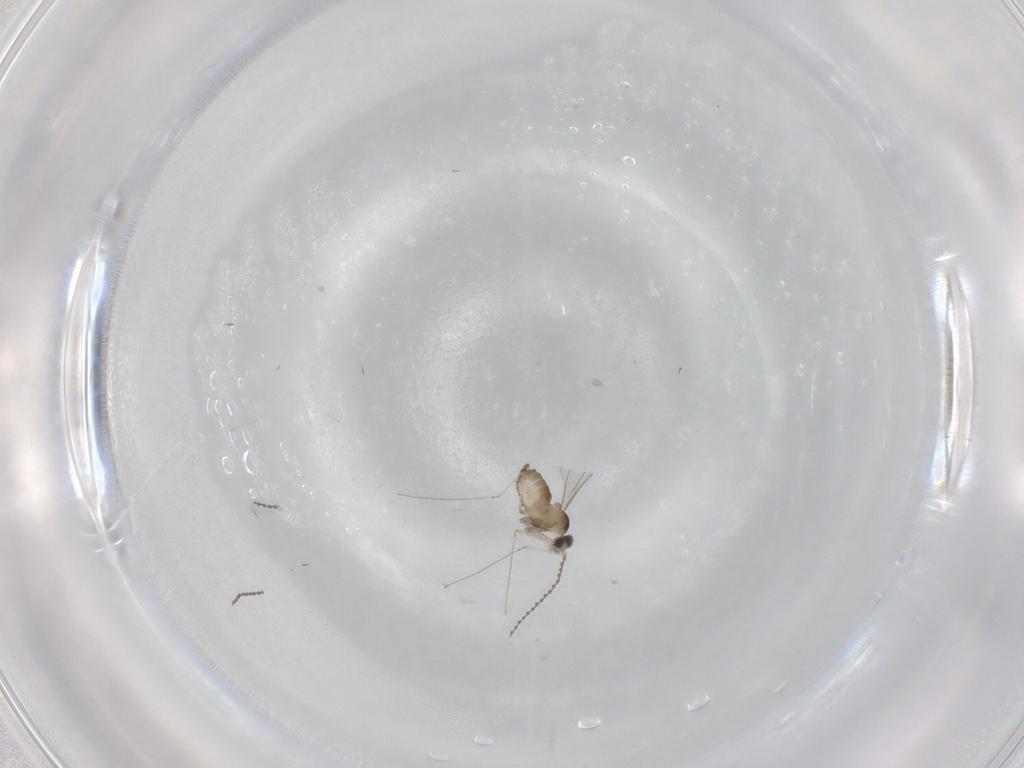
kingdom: Animalia
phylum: Arthropoda
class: Insecta
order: Diptera
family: Cecidomyiidae
